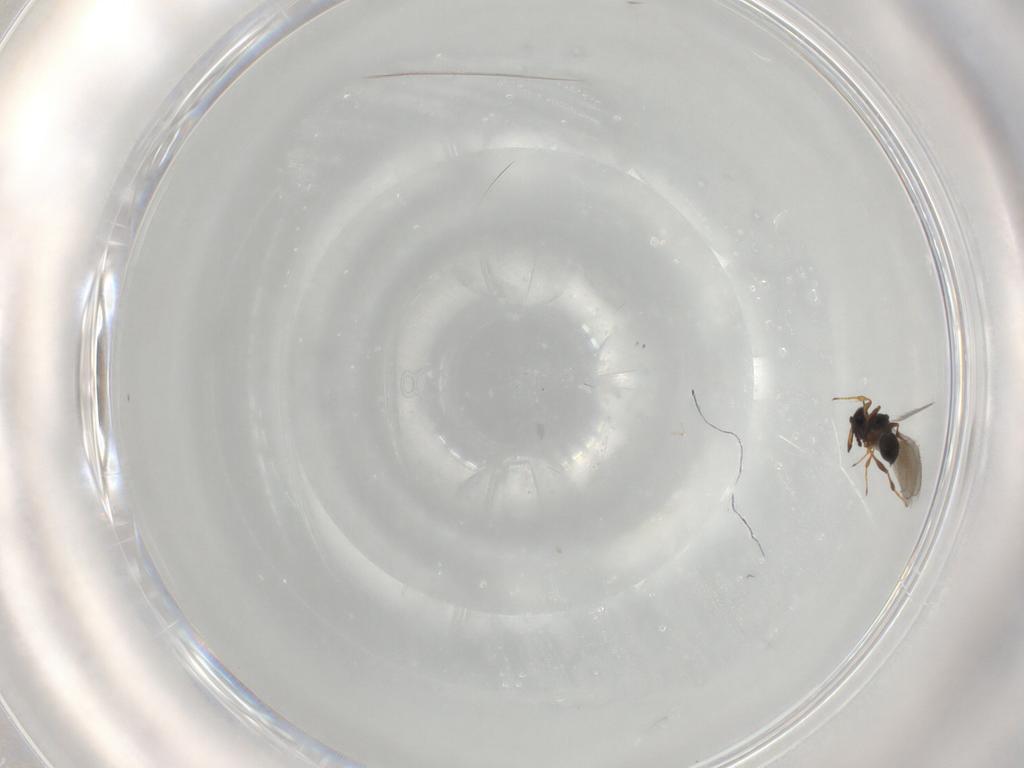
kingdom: Animalia
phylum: Arthropoda
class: Insecta
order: Hymenoptera
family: Platygastridae
